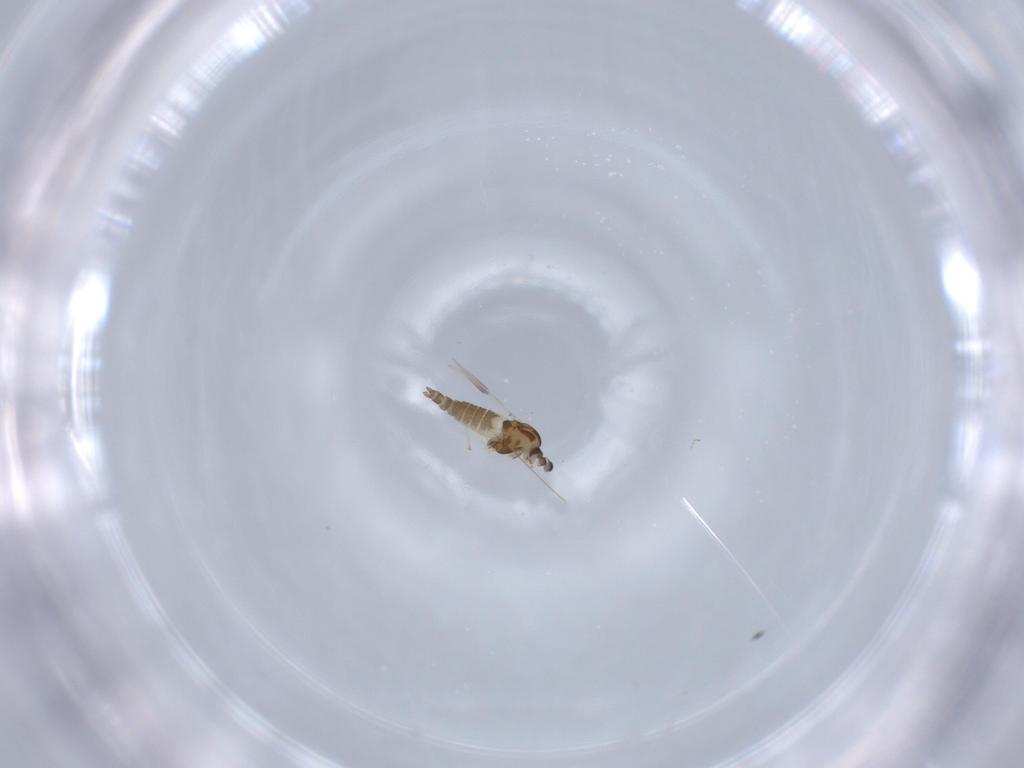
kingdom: Animalia
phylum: Arthropoda
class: Insecta
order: Diptera
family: Chironomidae
